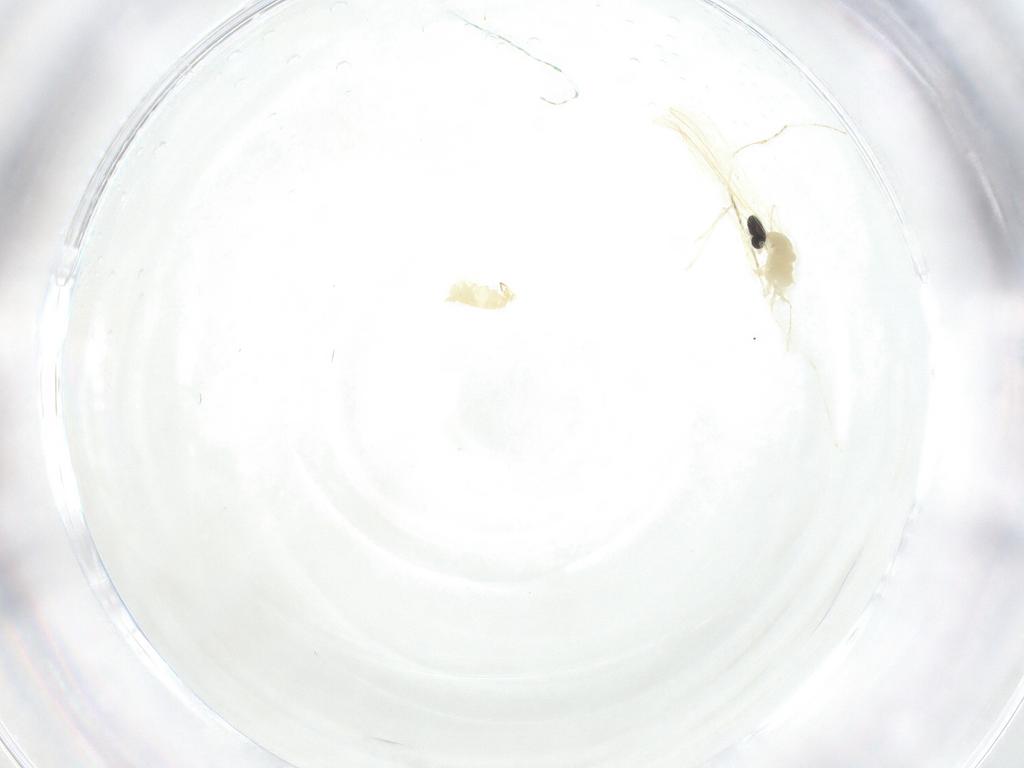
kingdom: Animalia
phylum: Arthropoda
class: Insecta
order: Diptera
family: Cecidomyiidae
